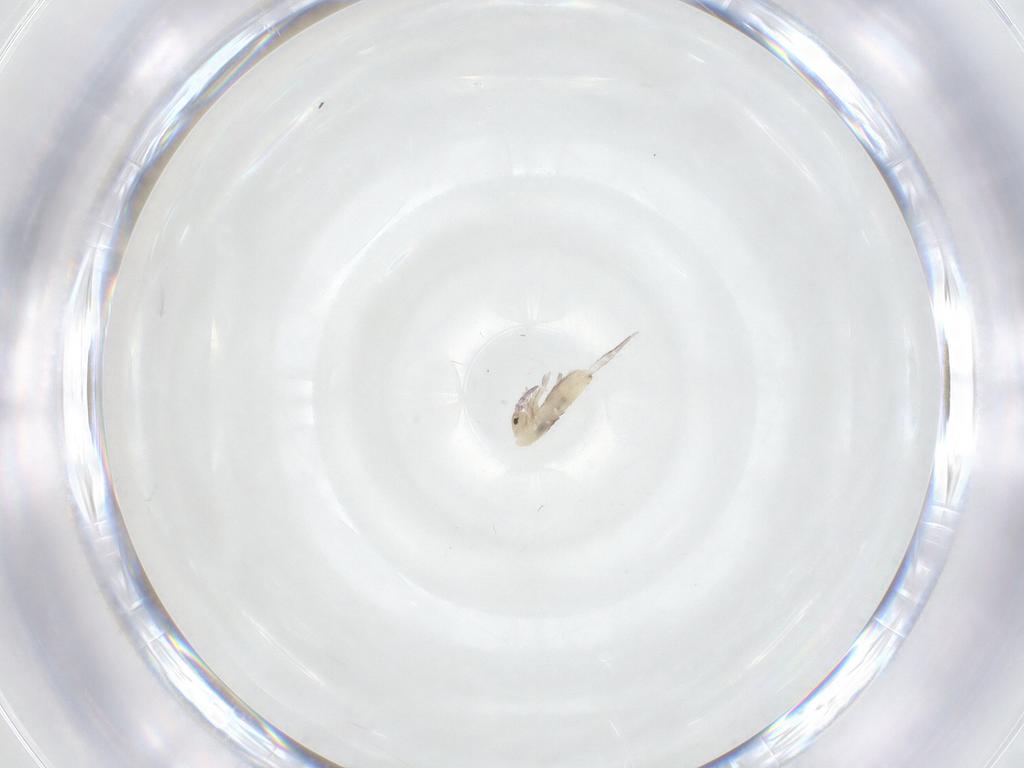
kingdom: Animalia
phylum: Arthropoda
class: Collembola
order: Entomobryomorpha
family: Entomobryidae
